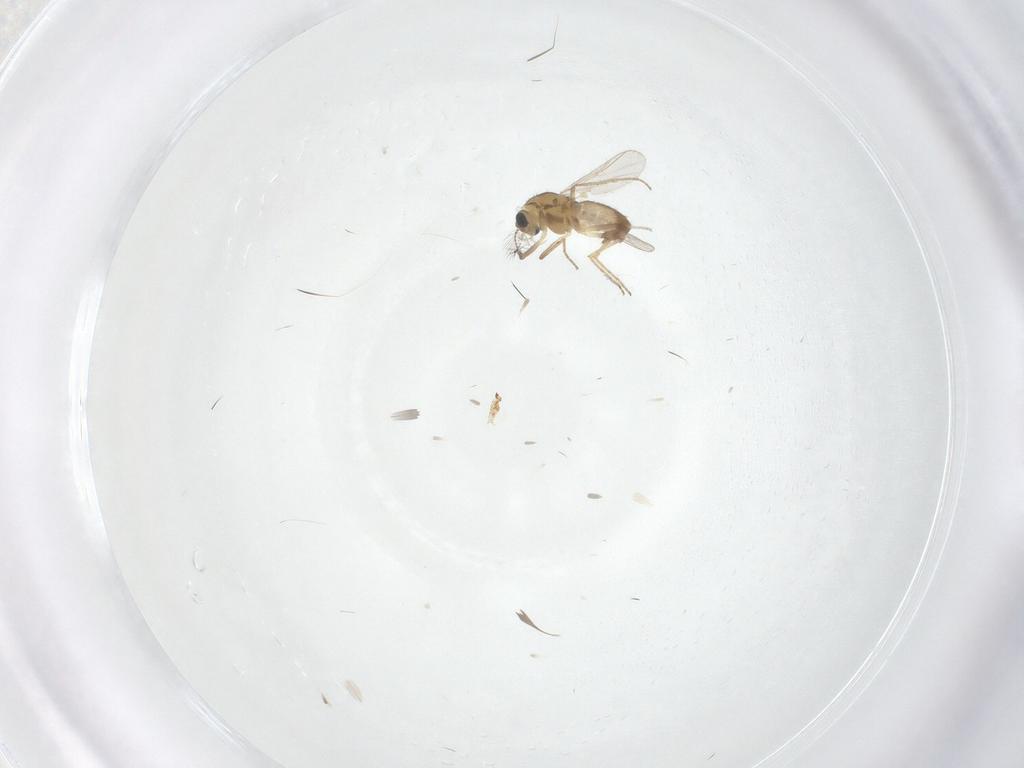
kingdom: Animalia
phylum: Arthropoda
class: Insecta
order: Diptera
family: Chironomidae
